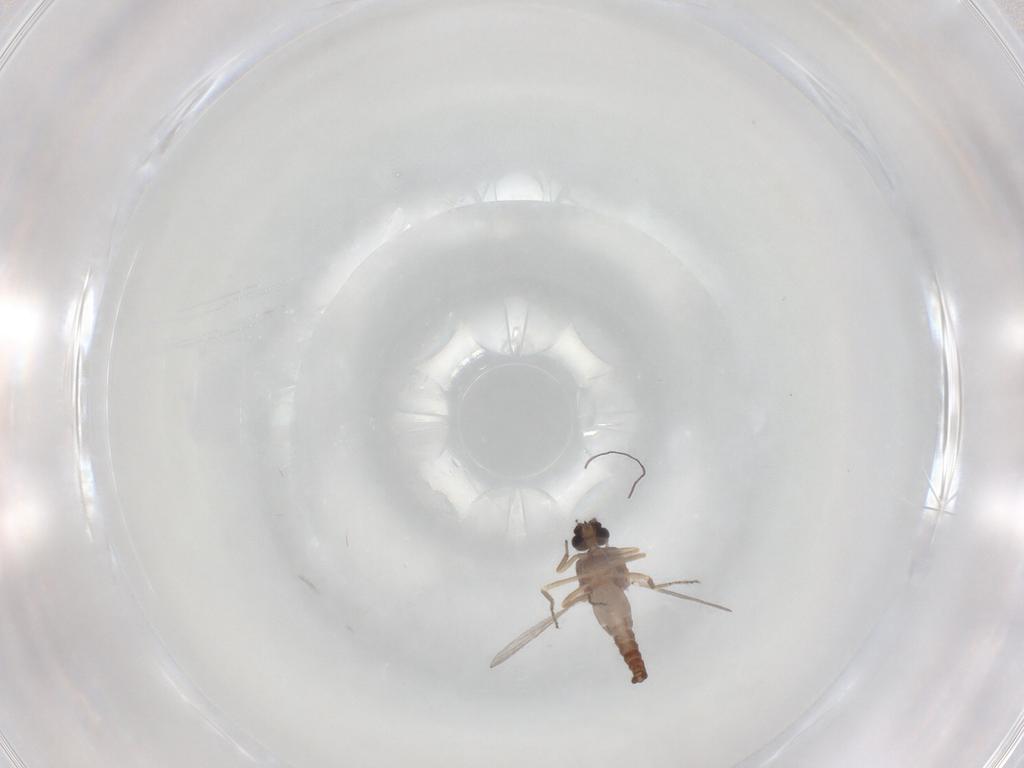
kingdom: Animalia
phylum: Arthropoda
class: Insecta
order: Diptera
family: Ceratopogonidae
